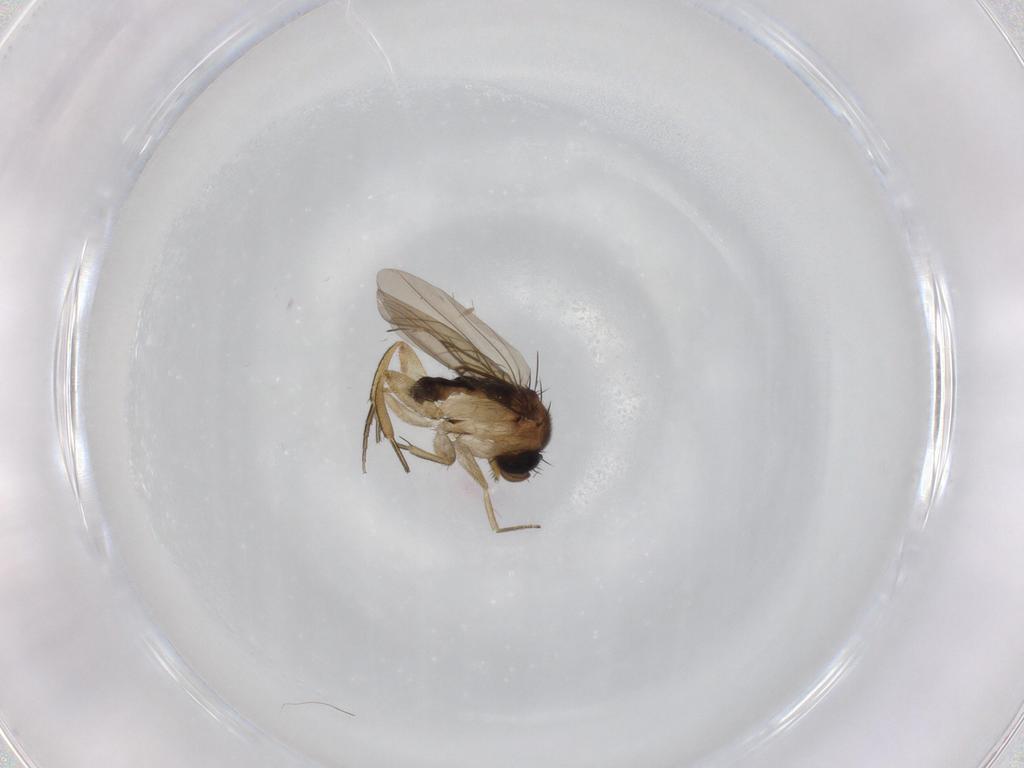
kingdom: Animalia
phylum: Arthropoda
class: Insecta
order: Diptera
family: Phoridae
